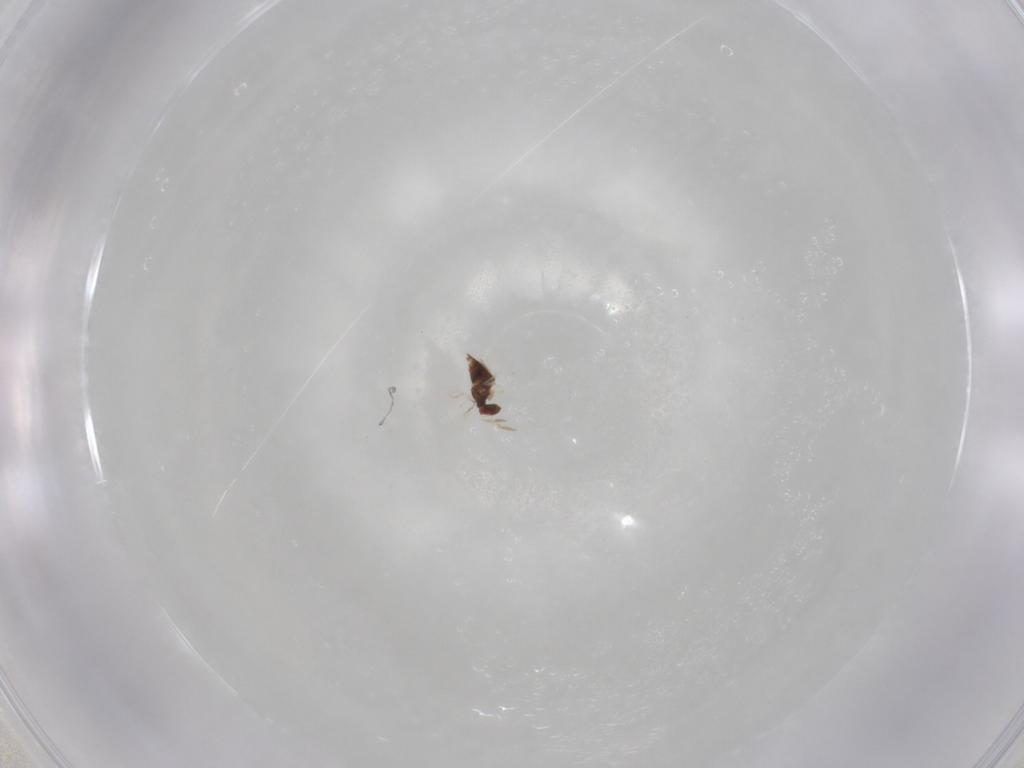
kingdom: Animalia
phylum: Arthropoda
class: Insecta
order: Hymenoptera
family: Trichogrammatidae
